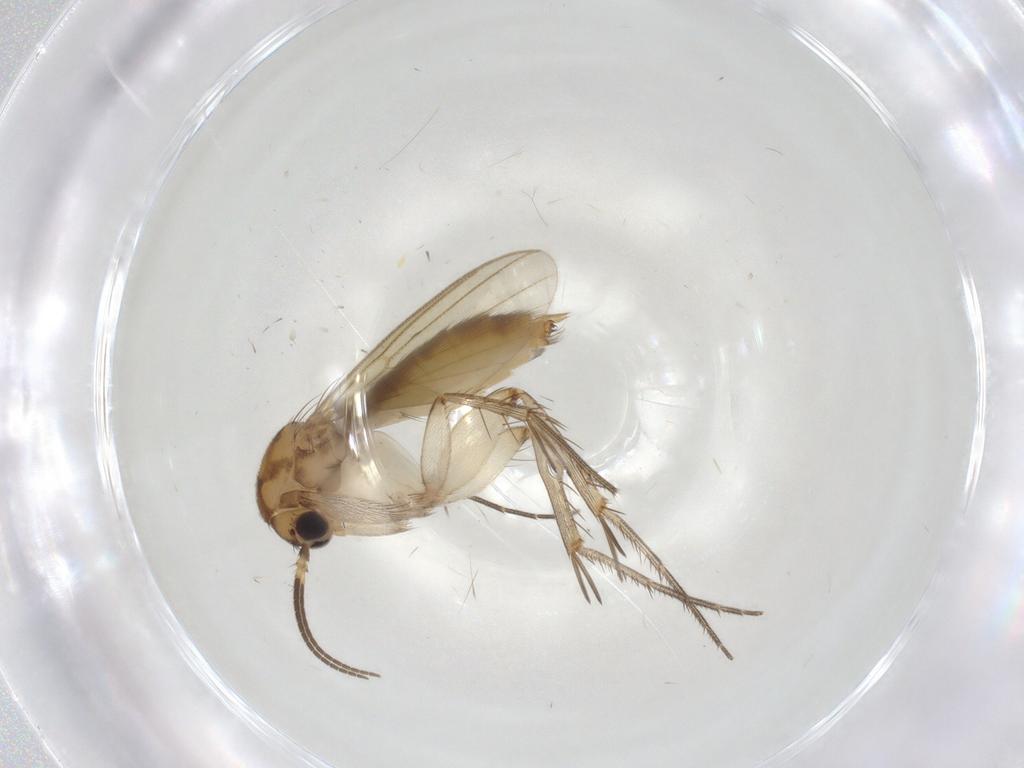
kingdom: Animalia
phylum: Arthropoda
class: Insecta
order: Diptera
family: Mycetophilidae
